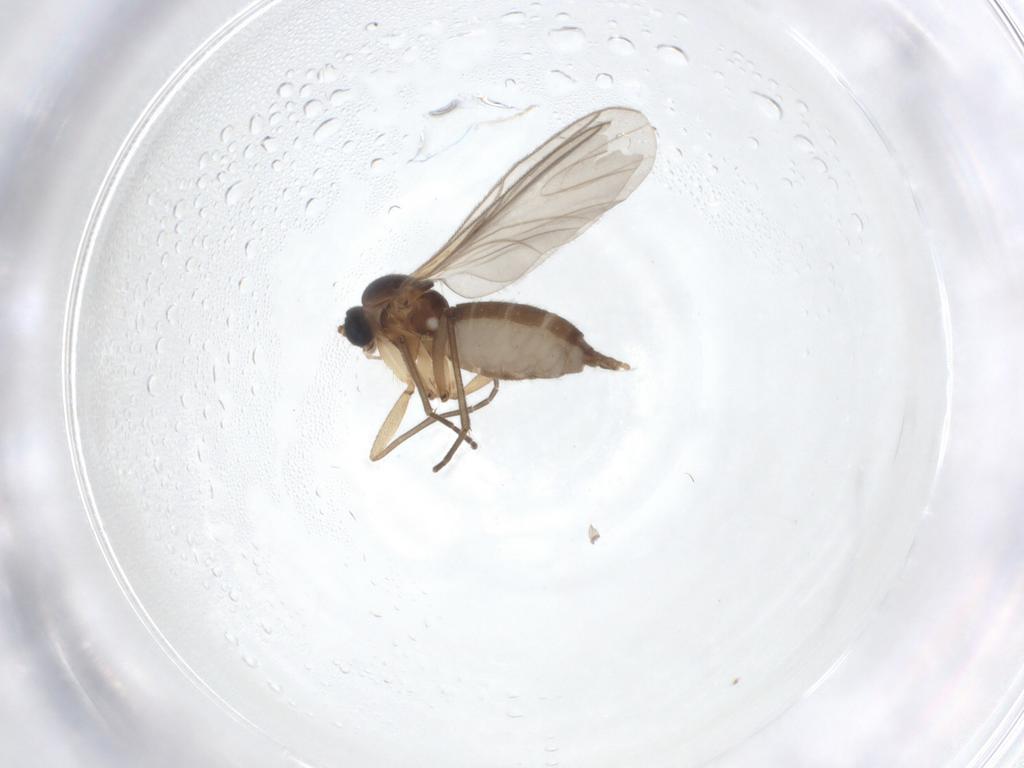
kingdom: Animalia
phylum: Arthropoda
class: Insecta
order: Diptera
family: Sciaridae
